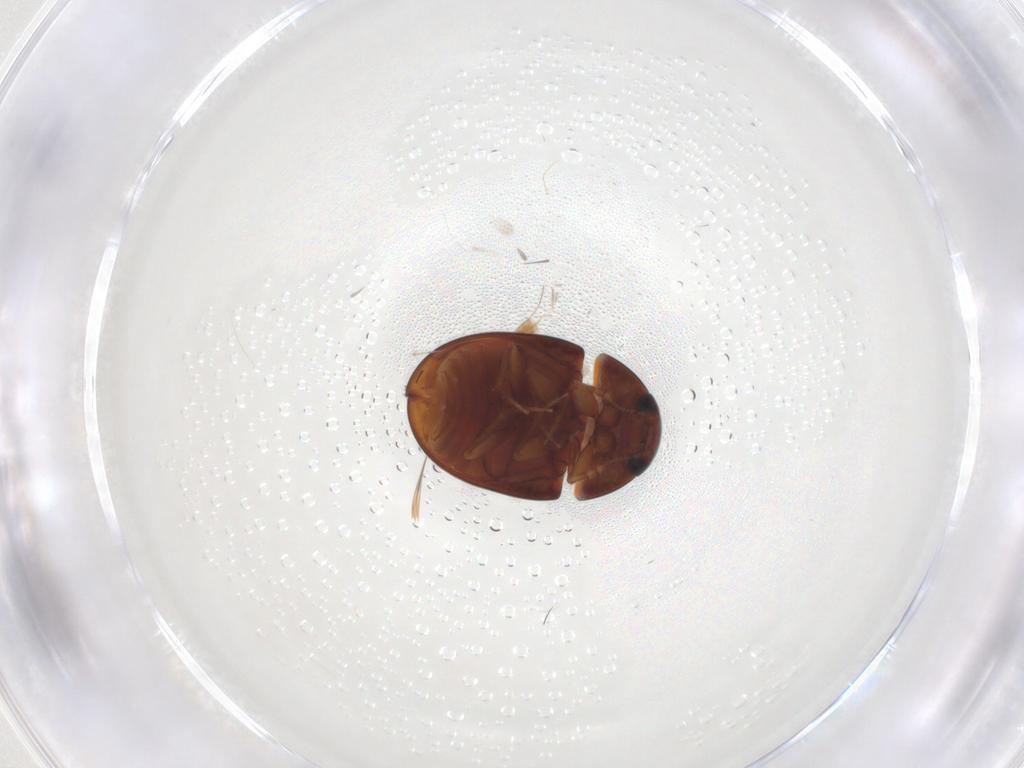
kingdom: Animalia
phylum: Arthropoda
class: Insecta
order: Coleoptera
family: Phalacridae
